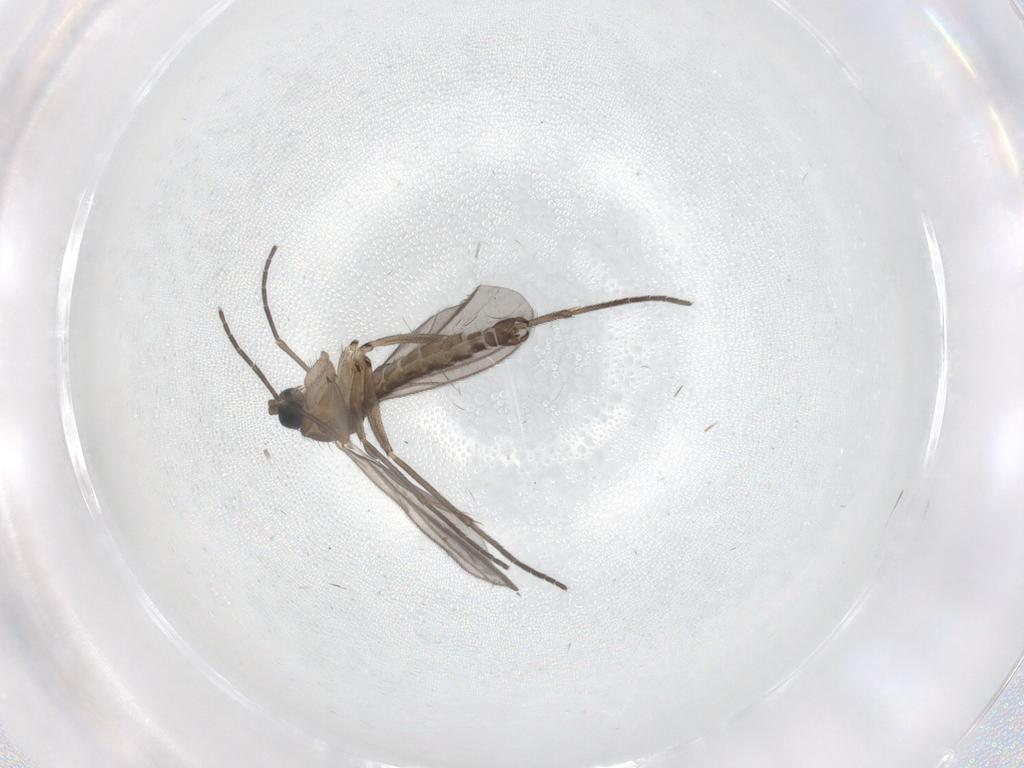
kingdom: Animalia
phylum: Arthropoda
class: Insecta
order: Diptera
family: Sciaridae
